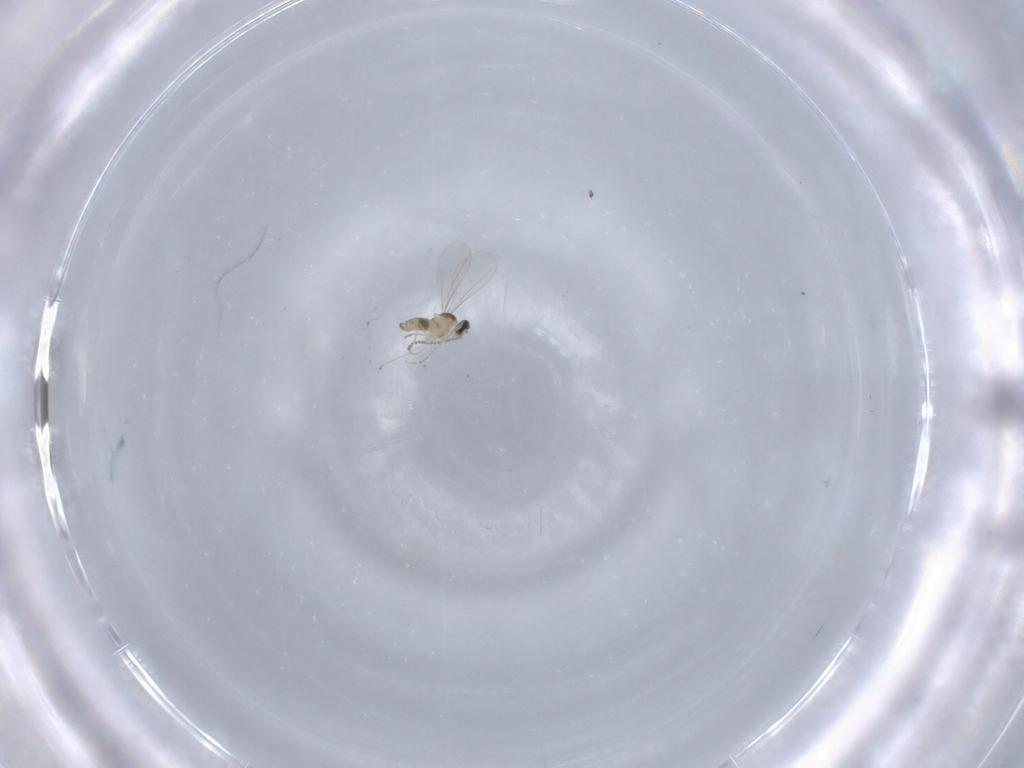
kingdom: Animalia
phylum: Arthropoda
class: Insecta
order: Diptera
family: Cecidomyiidae
